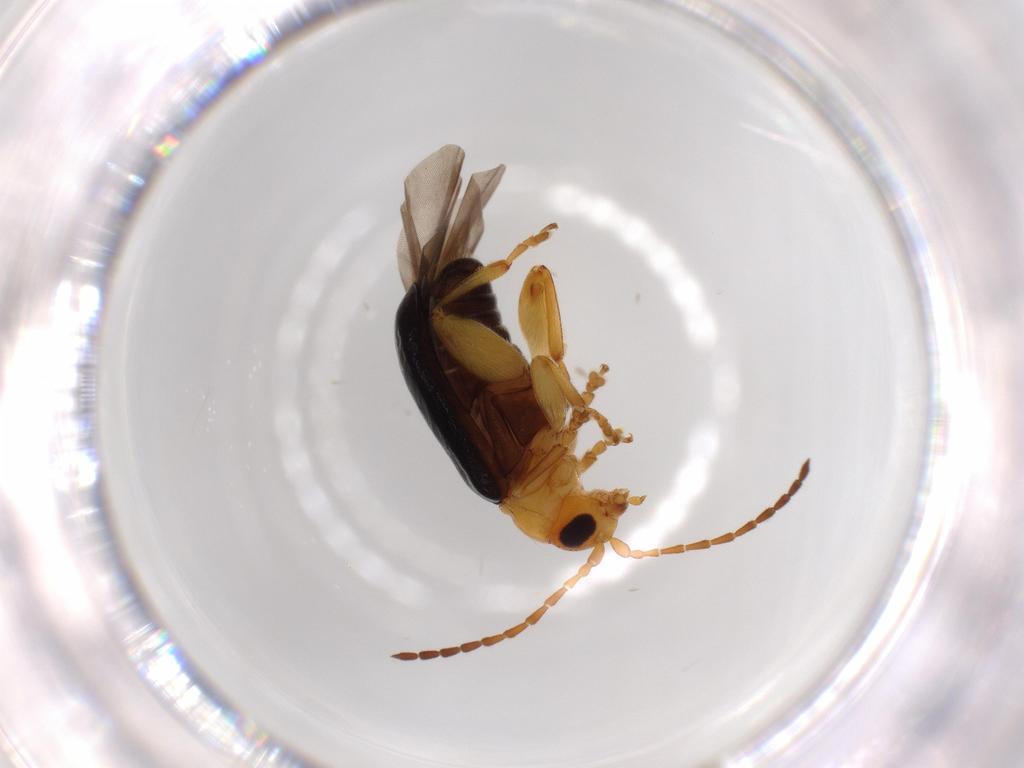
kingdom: Animalia
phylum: Arthropoda
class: Insecta
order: Coleoptera
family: Chrysomelidae
